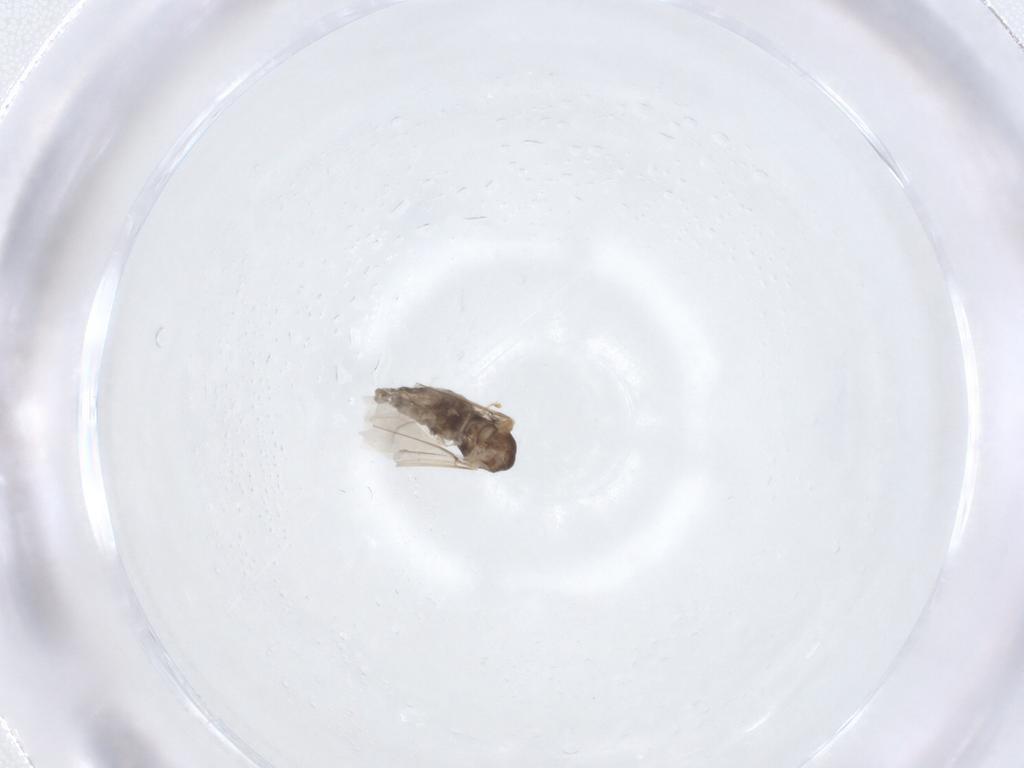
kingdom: Animalia
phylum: Arthropoda
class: Insecta
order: Diptera
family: Cecidomyiidae
